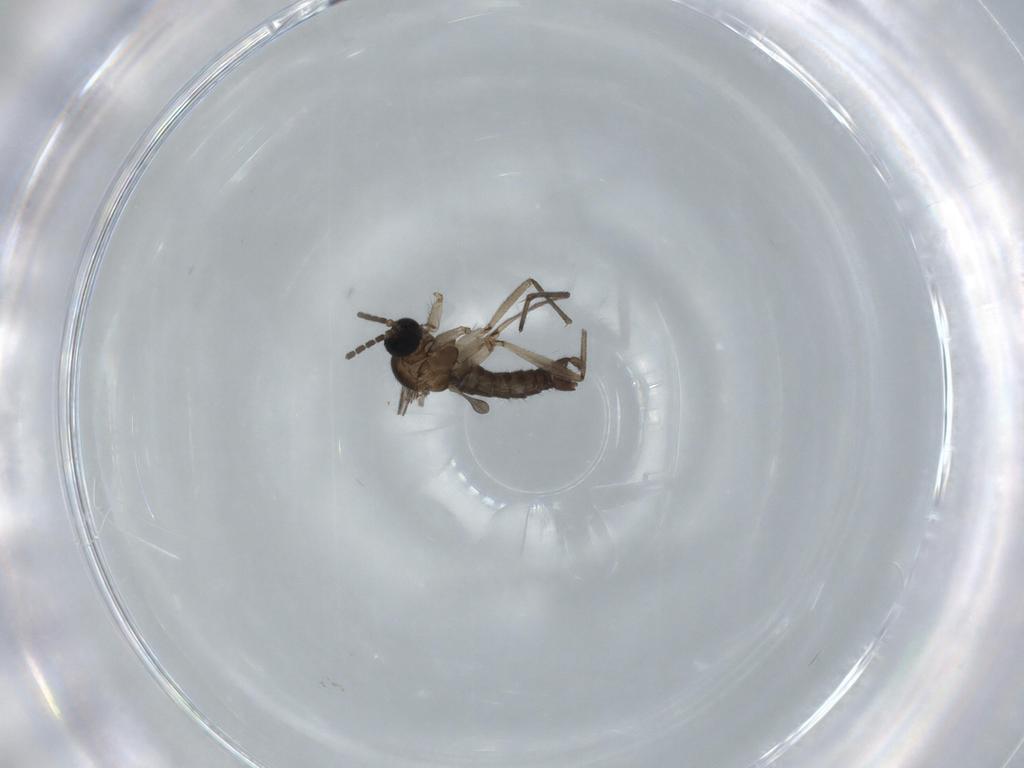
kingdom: Animalia
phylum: Arthropoda
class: Insecta
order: Diptera
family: Sciaridae
